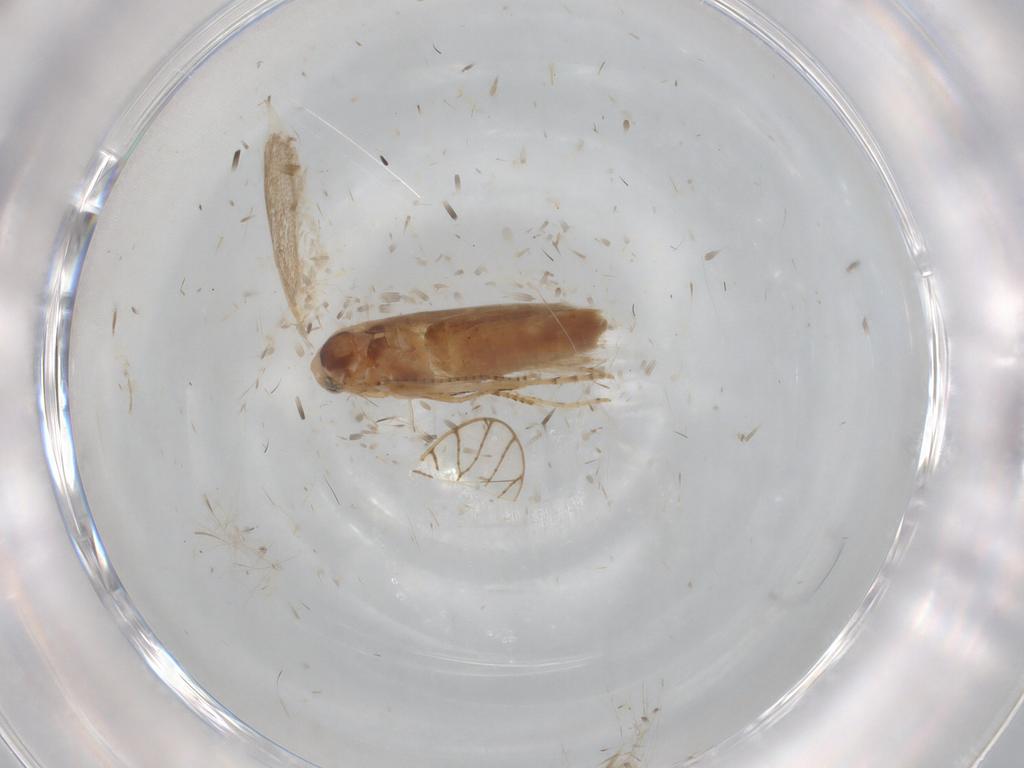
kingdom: Animalia
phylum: Arthropoda
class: Insecta
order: Lepidoptera
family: Bucculatricidae
